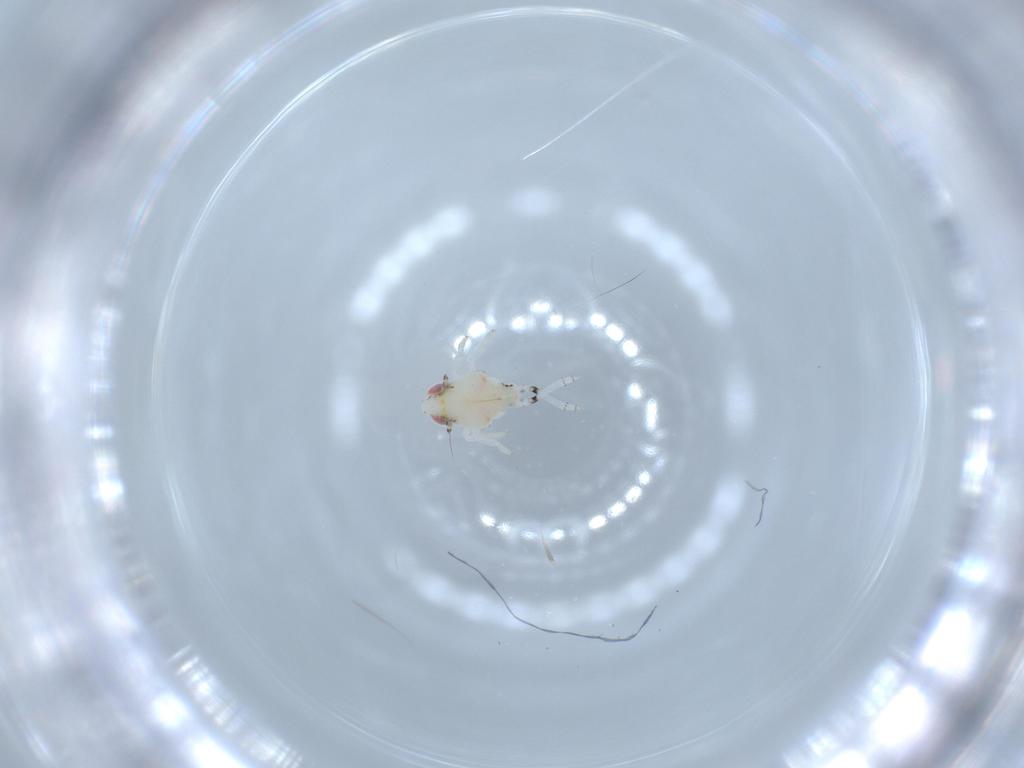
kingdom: Animalia
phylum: Arthropoda
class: Insecta
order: Hemiptera
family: Nogodinidae
